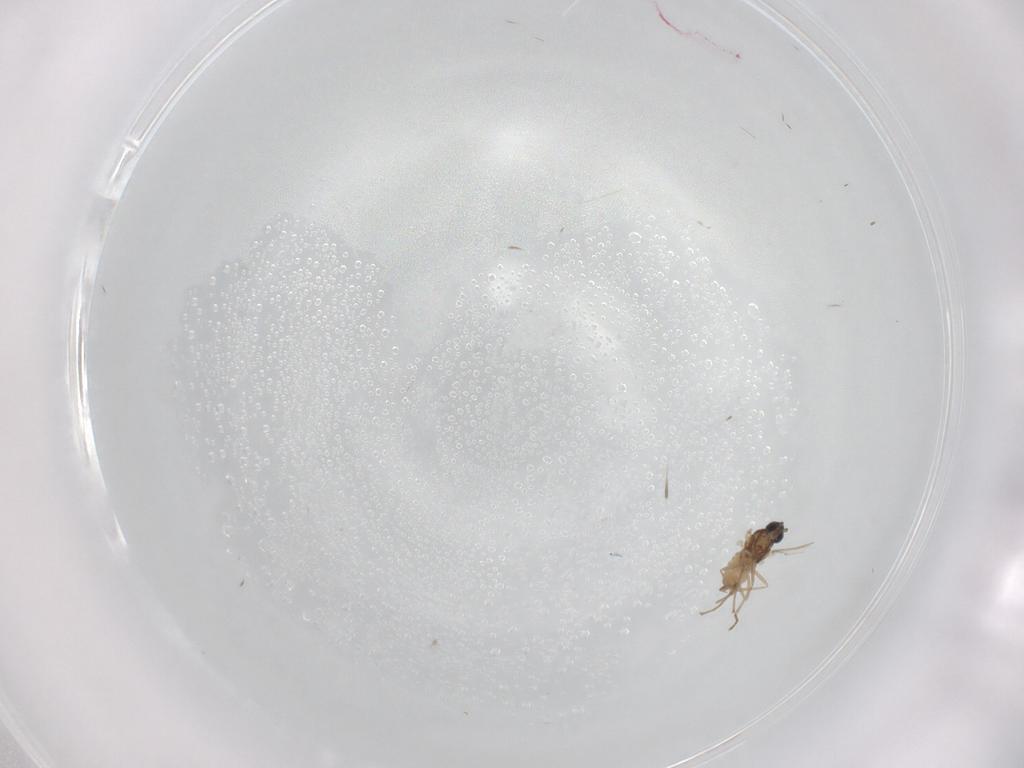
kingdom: Animalia
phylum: Arthropoda
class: Insecta
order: Diptera
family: Cecidomyiidae
